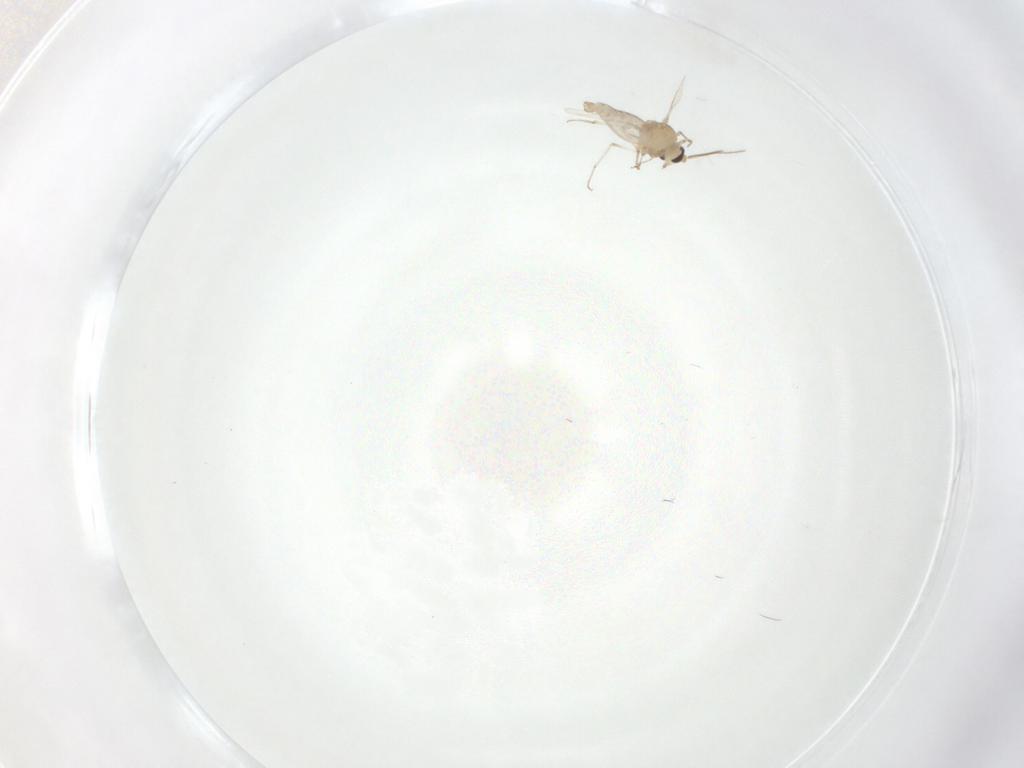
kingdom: Animalia
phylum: Arthropoda
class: Insecta
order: Diptera
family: Ceratopogonidae
